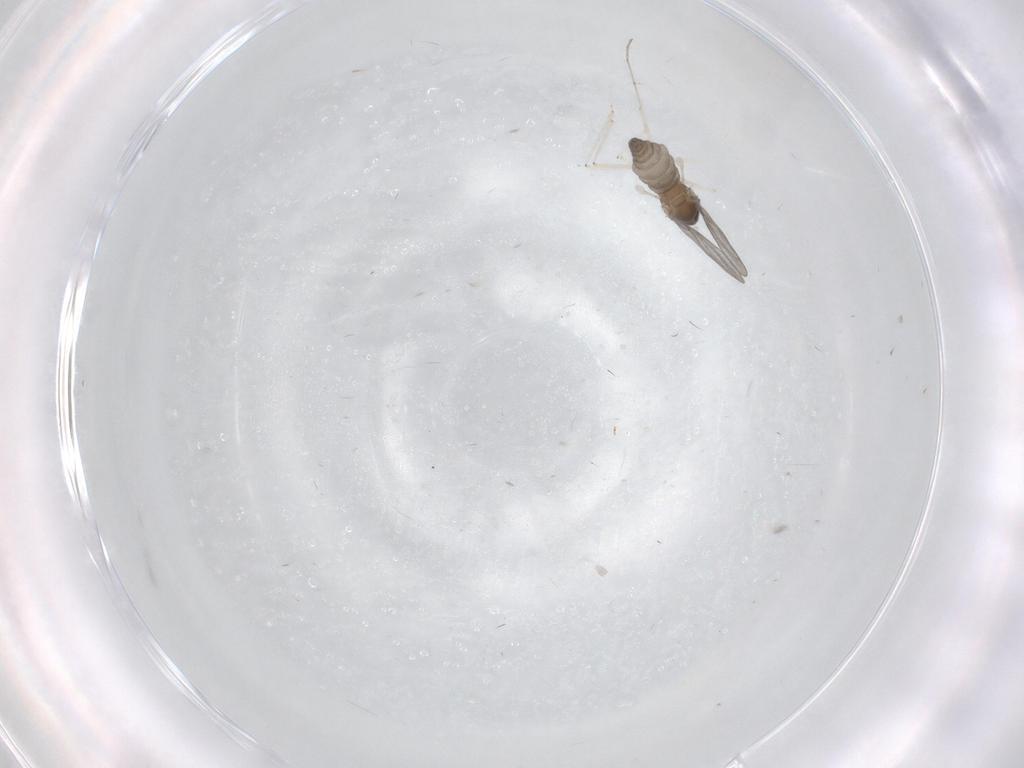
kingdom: Animalia
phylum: Arthropoda
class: Insecta
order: Diptera
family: Cecidomyiidae
